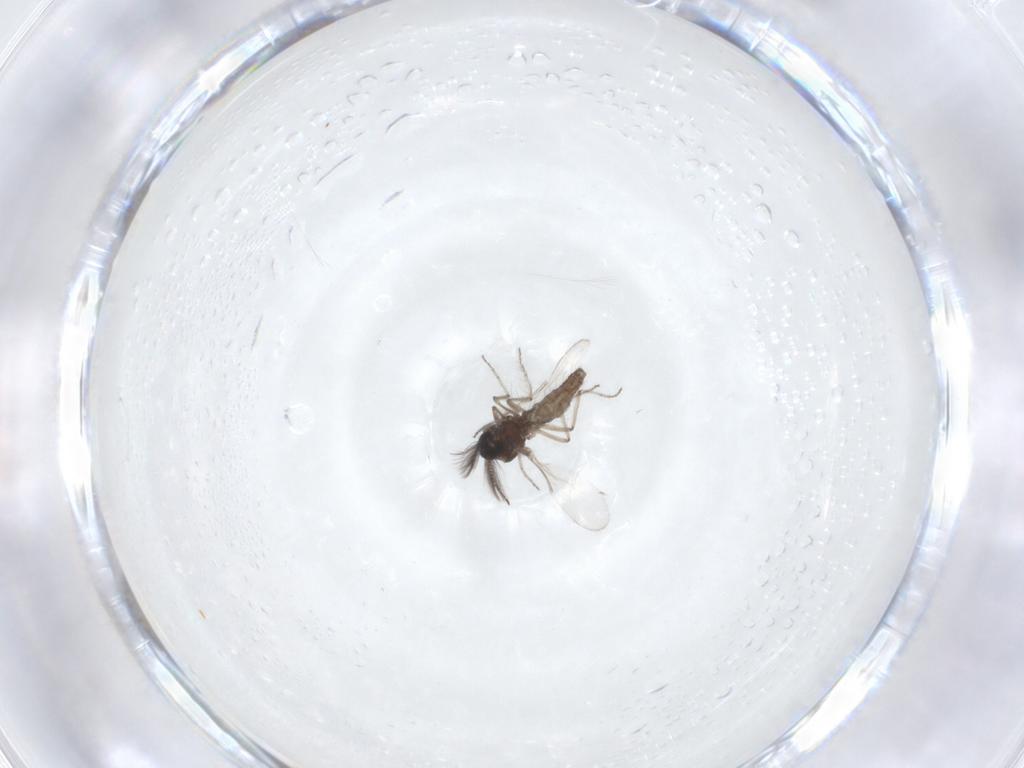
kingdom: Animalia
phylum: Arthropoda
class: Insecta
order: Diptera
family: Ceratopogonidae
